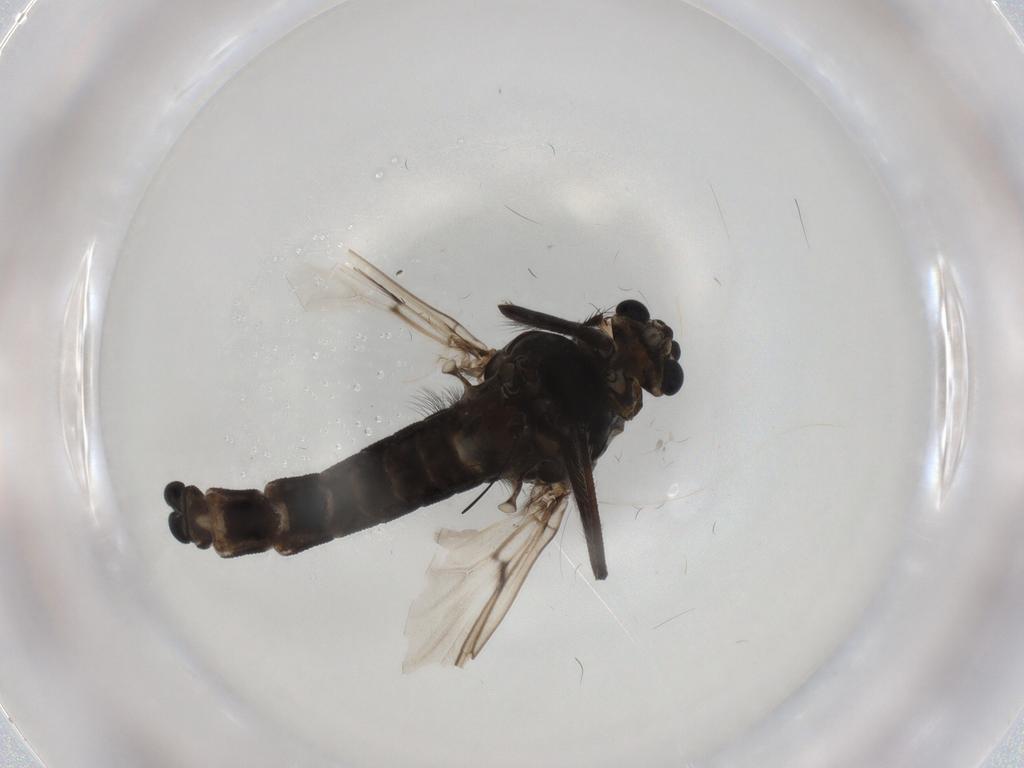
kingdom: Animalia
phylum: Arthropoda
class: Insecta
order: Diptera
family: Chironomidae
